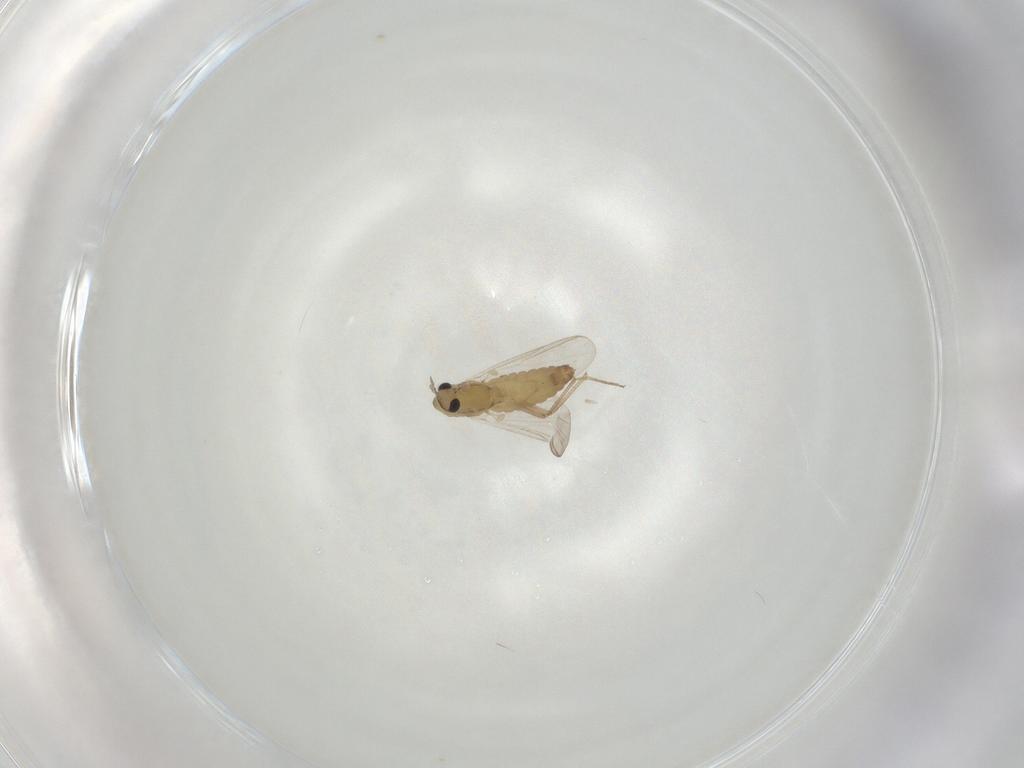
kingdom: Animalia
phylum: Arthropoda
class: Insecta
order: Diptera
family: Chironomidae
